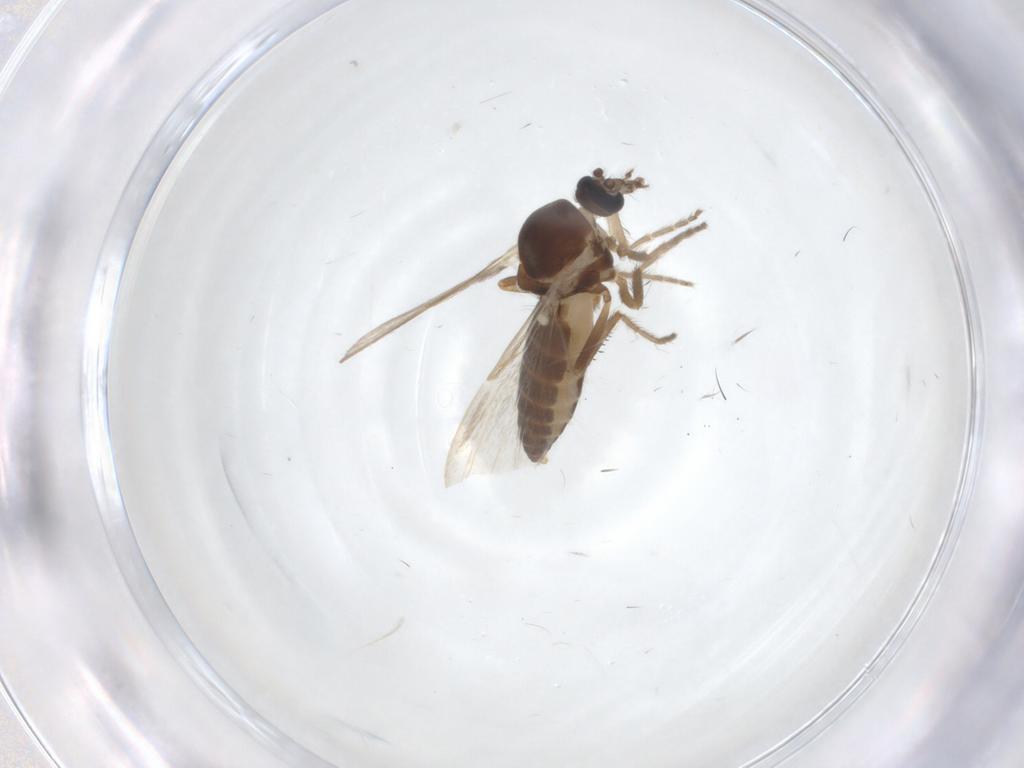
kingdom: Animalia
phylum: Arthropoda
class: Insecta
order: Diptera
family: Ceratopogonidae
